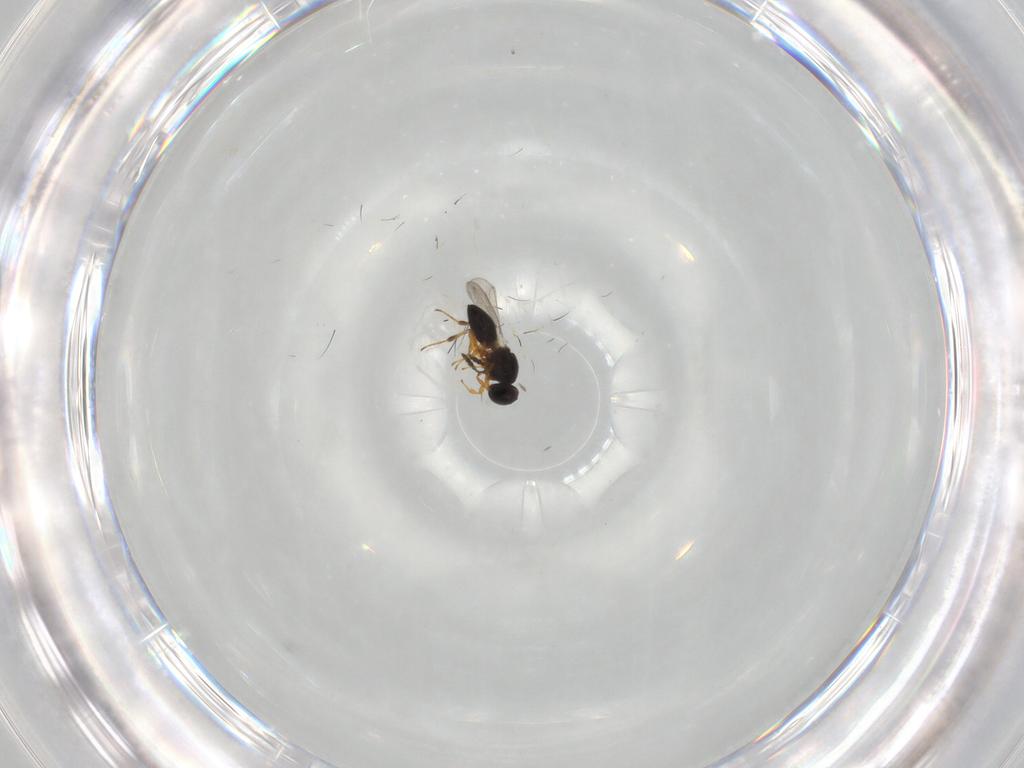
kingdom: Animalia
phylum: Arthropoda
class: Insecta
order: Hymenoptera
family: Platygastridae
